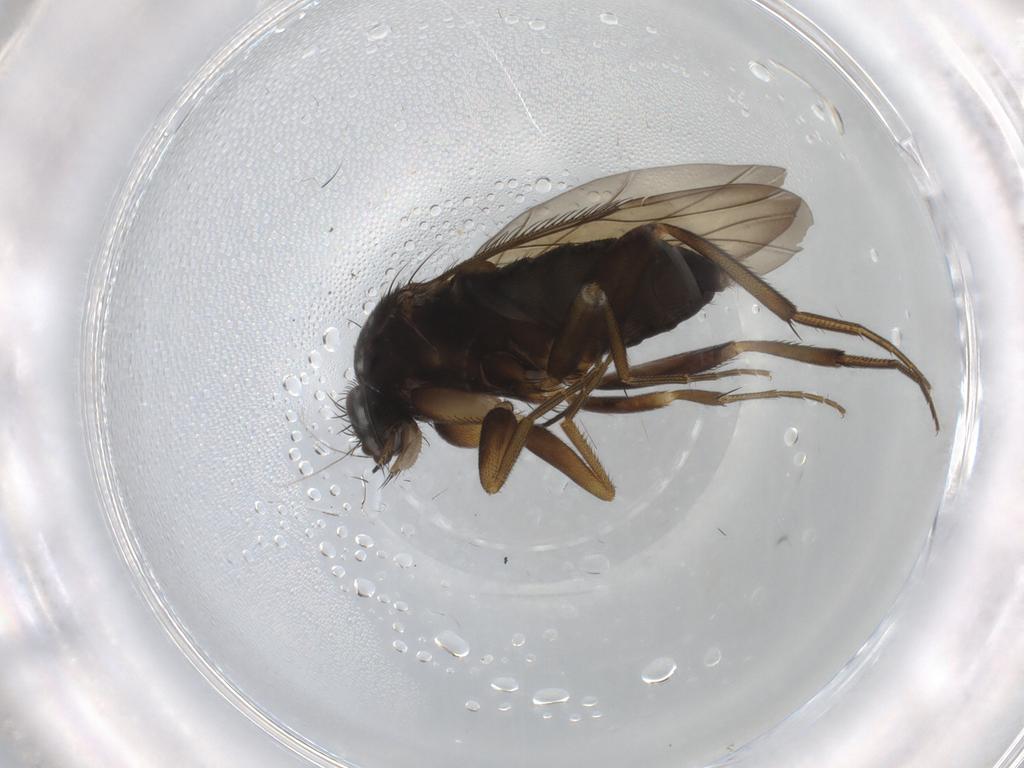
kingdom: Animalia
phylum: Arthropoda
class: Insecta
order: Diptera
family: Phoridae
